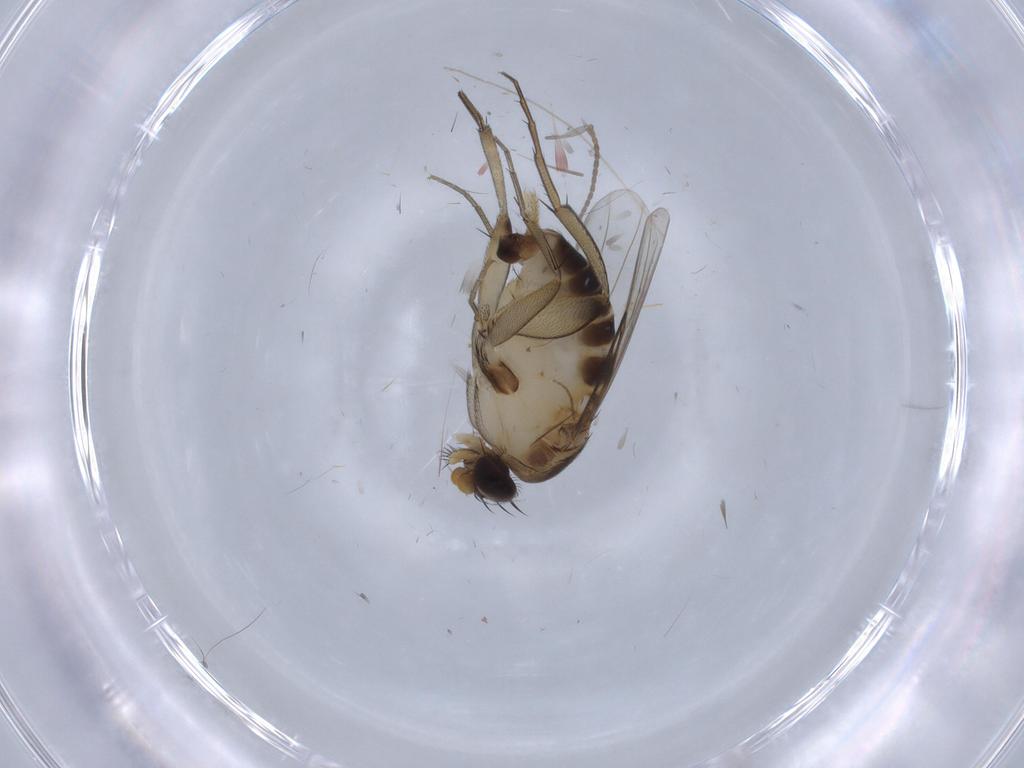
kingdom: Animalia
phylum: Arthropoda
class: Insecta
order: Diptera
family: Phoridae
